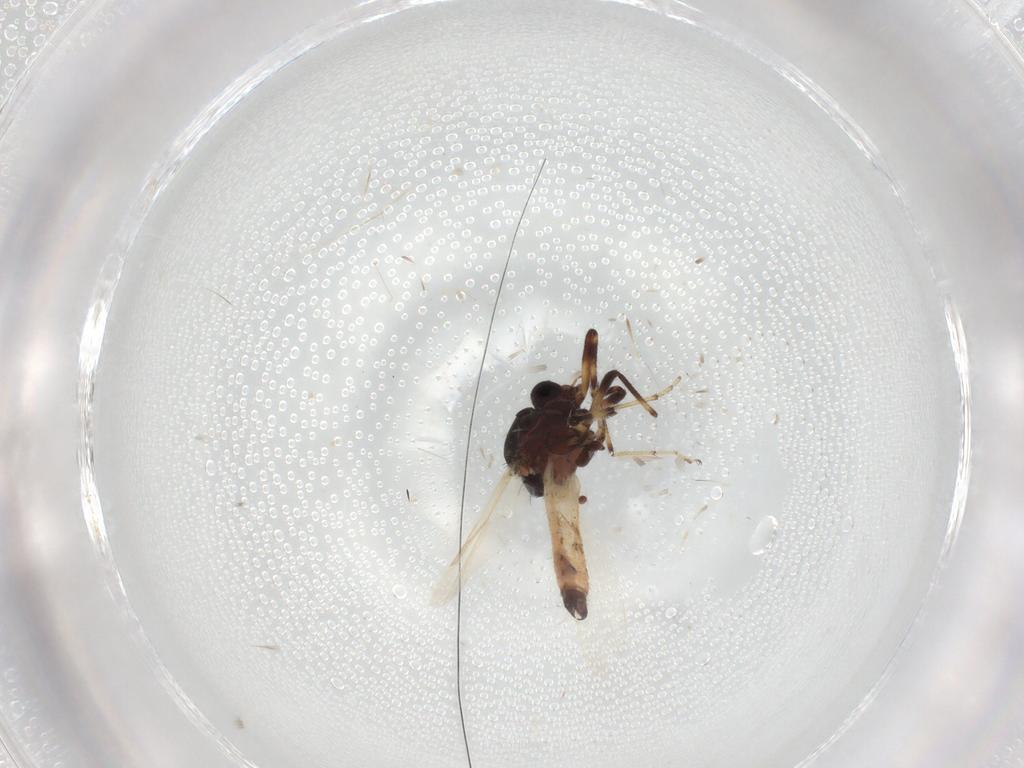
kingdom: Animalia
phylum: Arthropoda
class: Insecta
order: Diptera
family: Ceratopogonidae
